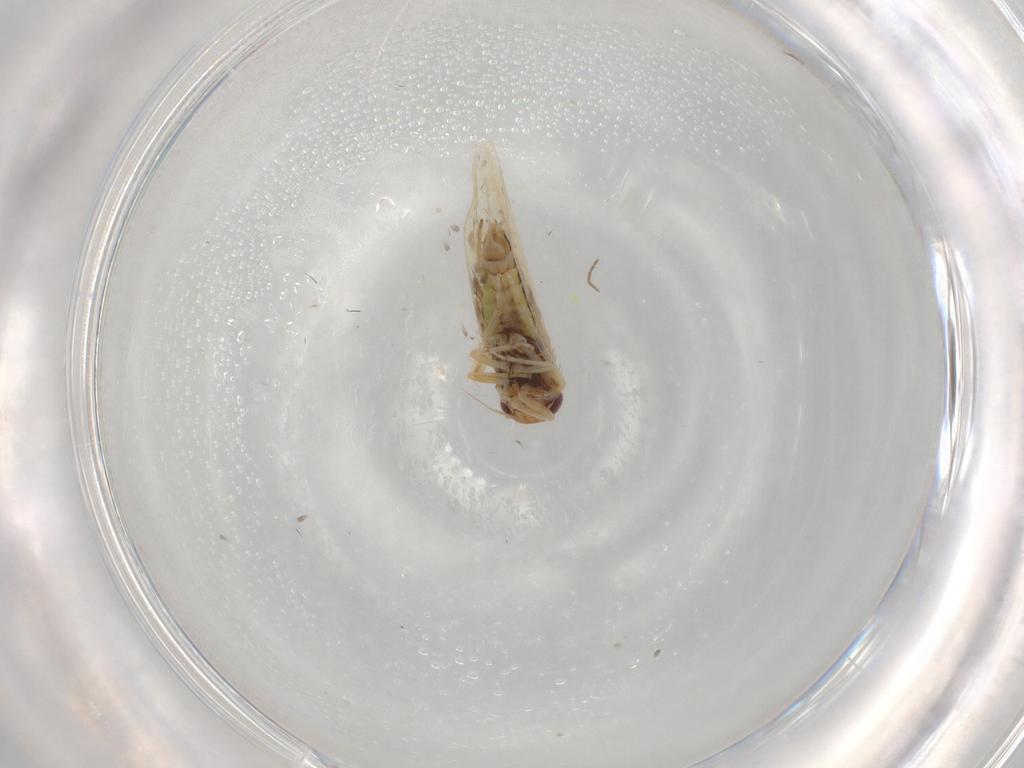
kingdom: Animalia
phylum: Arthropoda
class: Insecta
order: Hemiptera
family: Cicadellidae
